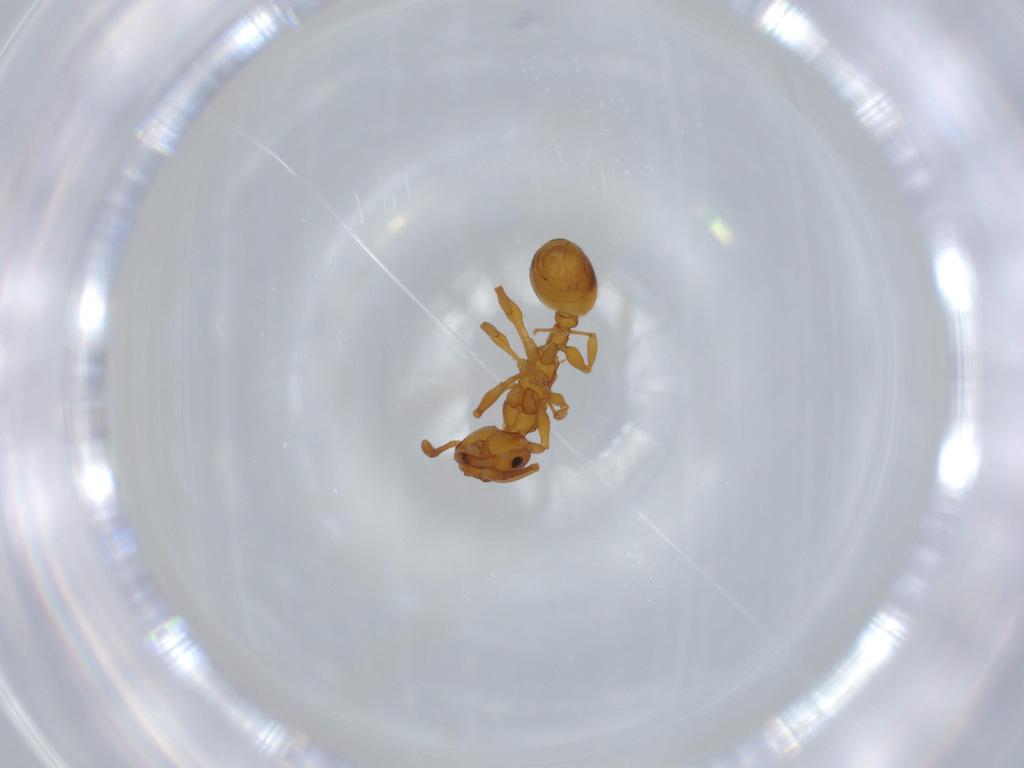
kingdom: Animalia
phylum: Arthropoda
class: Insecta
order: Hymenoptera
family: Formicidae
